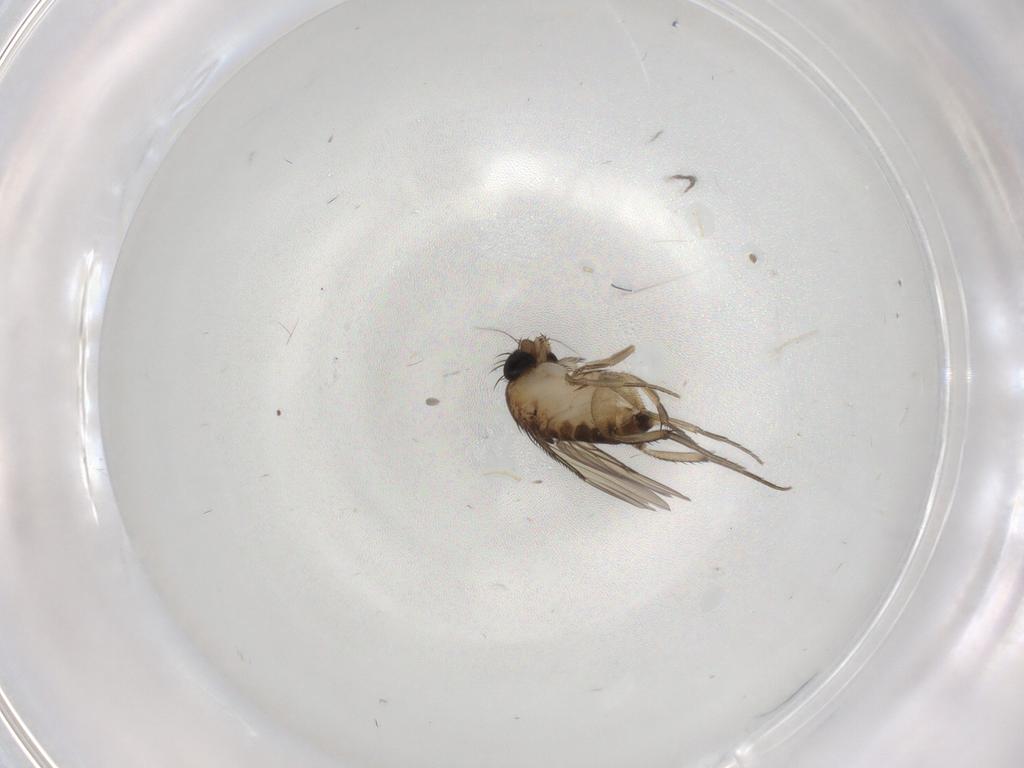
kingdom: Animalia
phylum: Arthropoda
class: Insecta
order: Diptera
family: Phoridae
